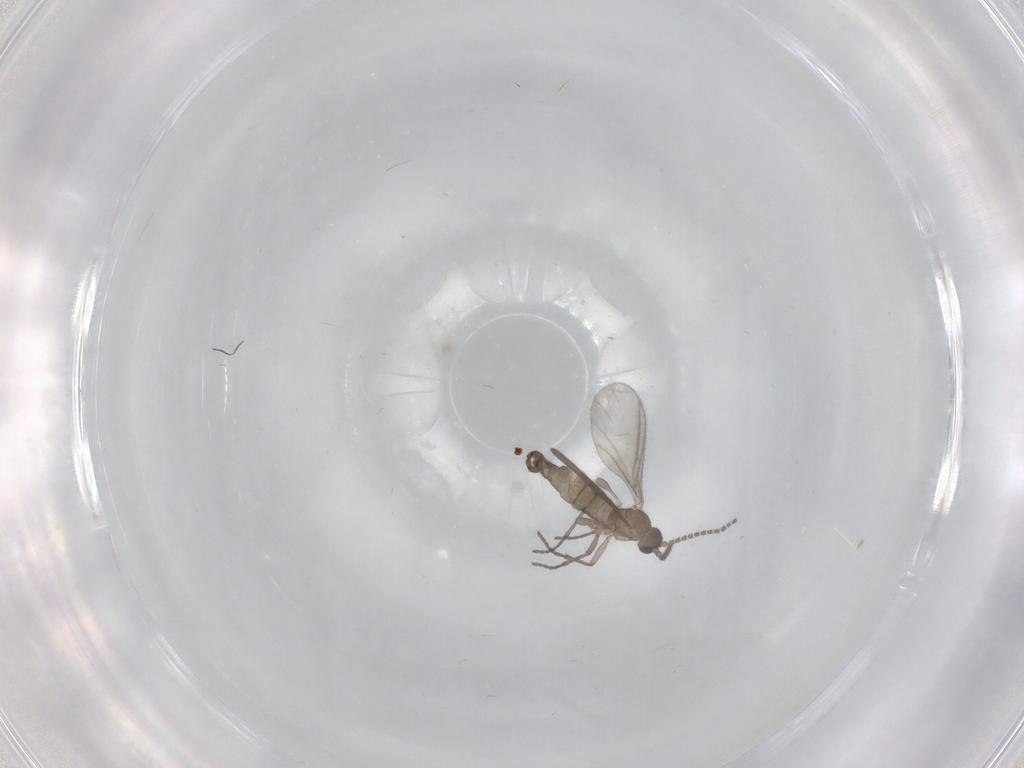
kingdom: Animalia
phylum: Arthropoda
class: Insecta
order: Diptera
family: Sciaridae
